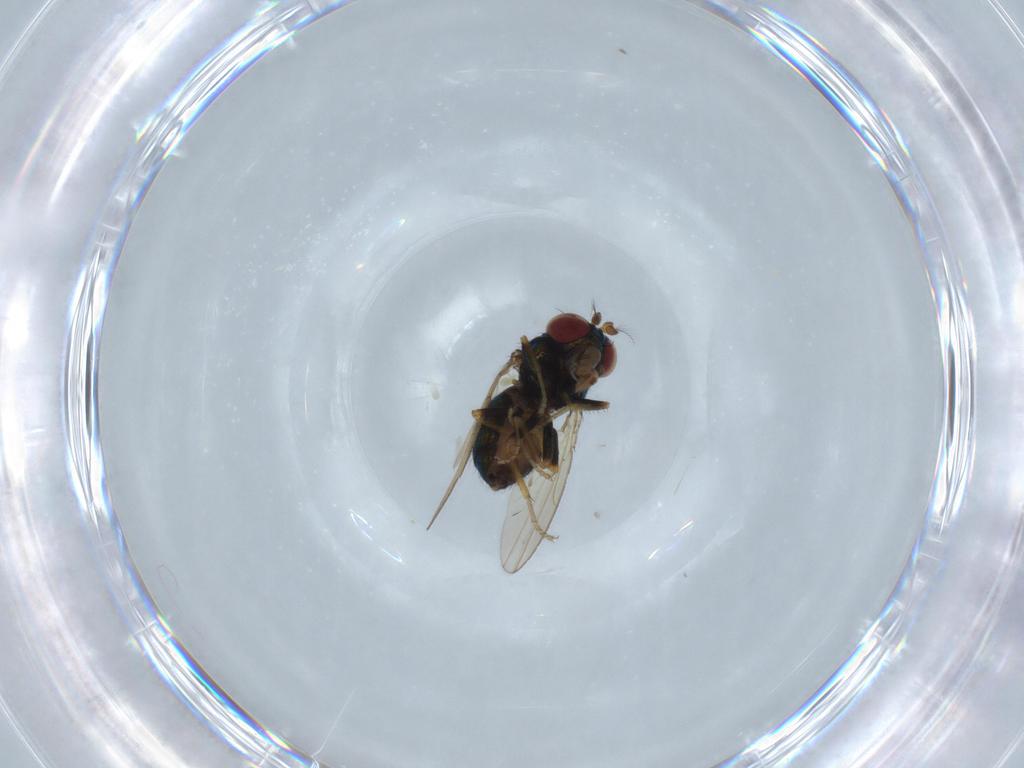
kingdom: Animalia
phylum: Arthropoda
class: Insecta
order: Diptera
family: Ephydridae
